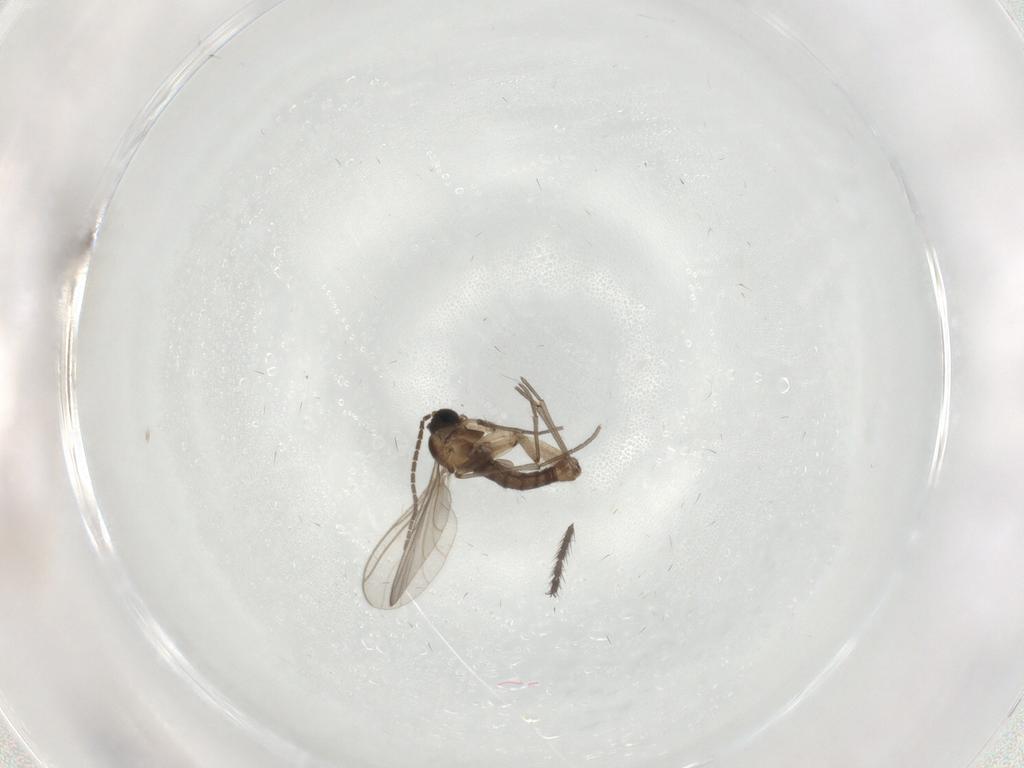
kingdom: Animalia
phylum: Arthropoda
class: Insecta
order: Diptera
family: Limoniidae
